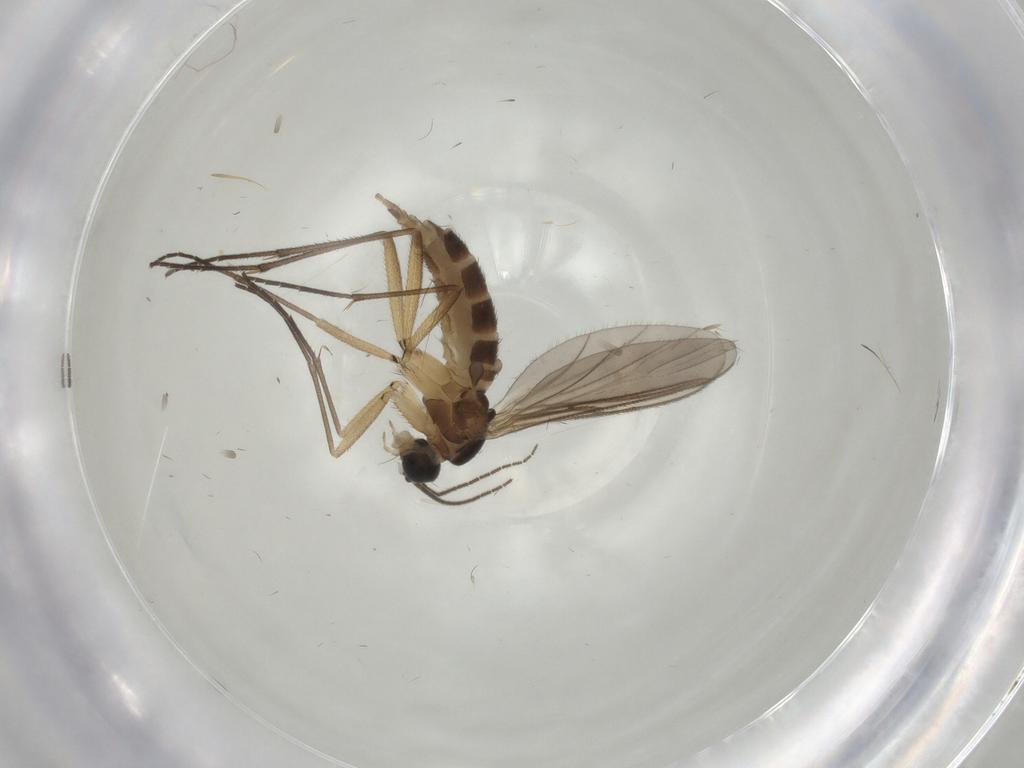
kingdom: Animalia
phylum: Arthropoda
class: Insecta
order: Diptera
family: Sciaridae
